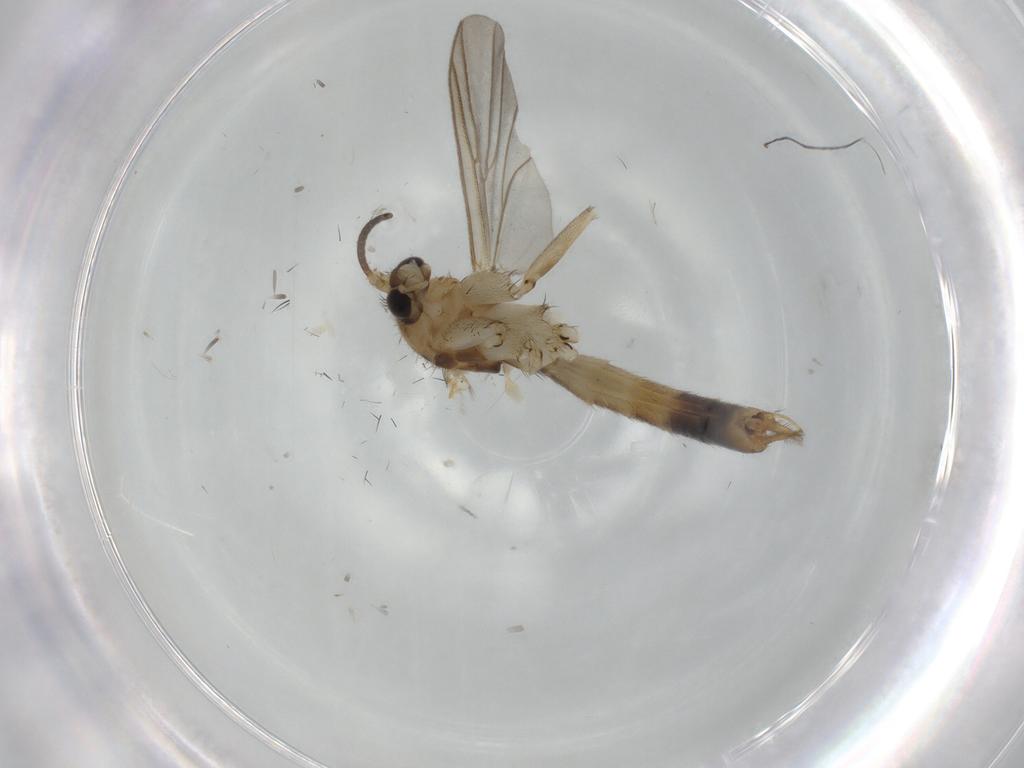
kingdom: Animalia
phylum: Arthropoda
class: Insecta
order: Diptera
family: Mycetophilidae
